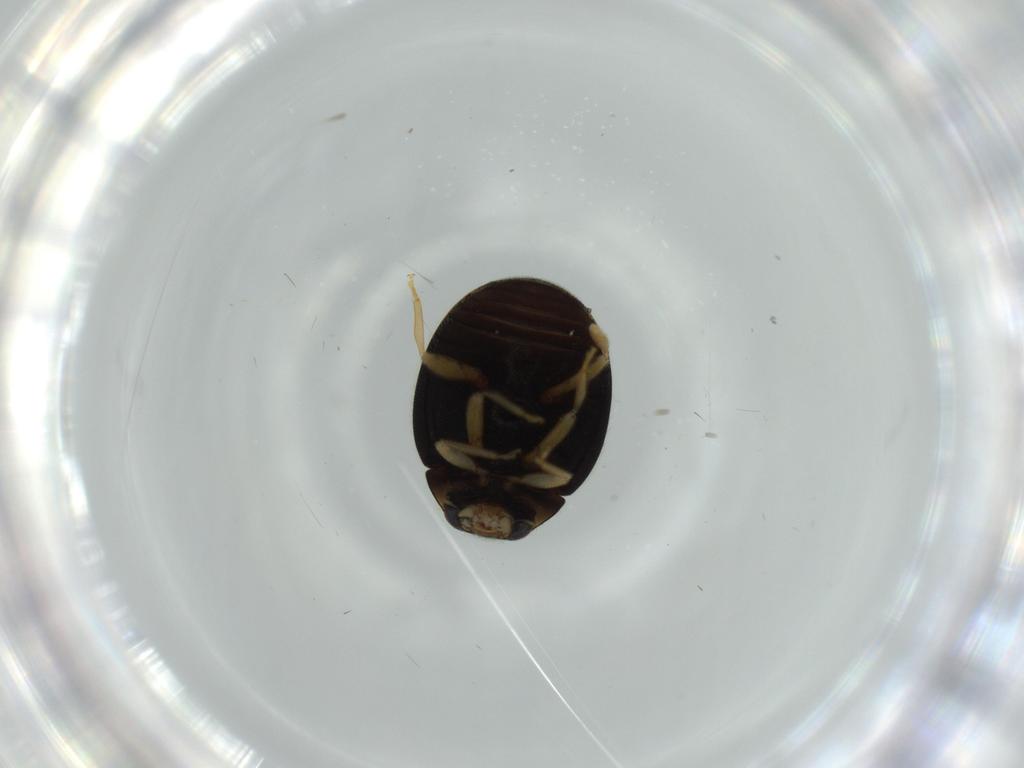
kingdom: Animalia
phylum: Arthropoda
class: Insecta
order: Coleoptera
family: Coccinellidae
